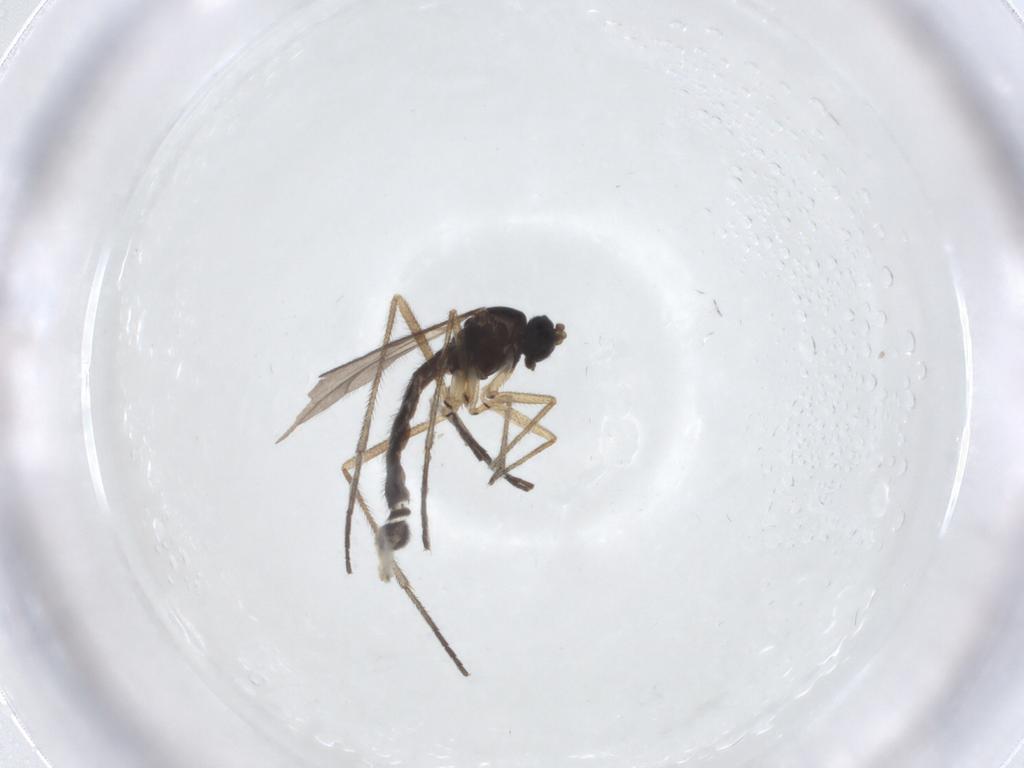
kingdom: Animalia
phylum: Arthropoda
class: Insecta
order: Diptera
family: Sciaridae
